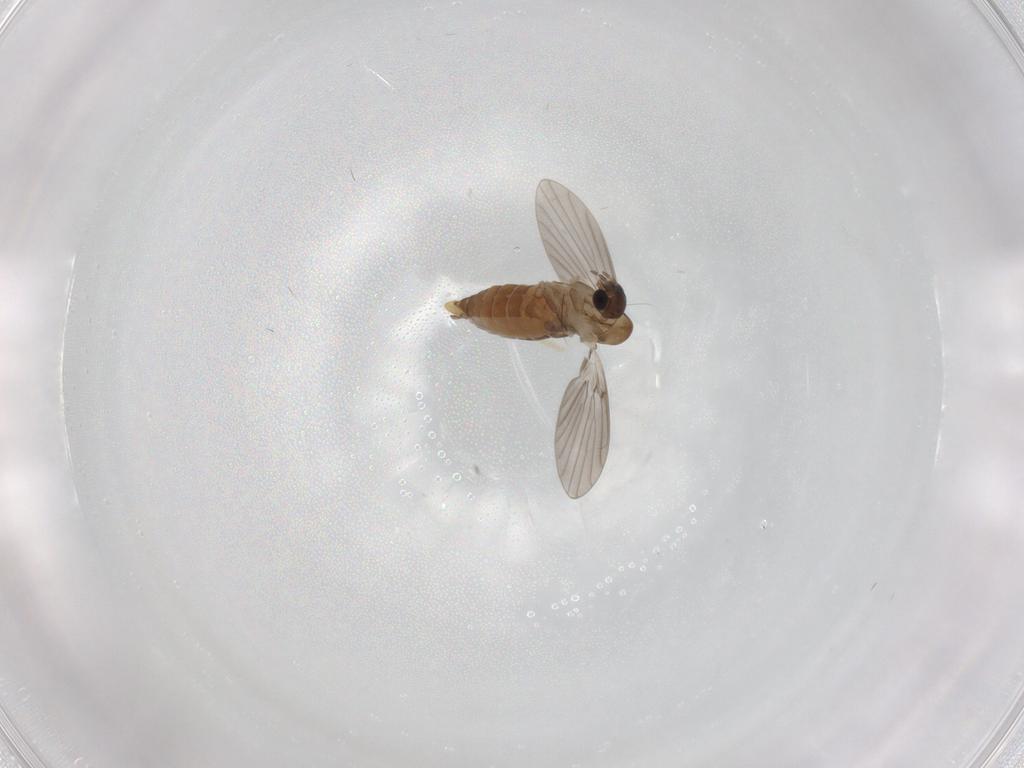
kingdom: Animalia
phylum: Arthropoda
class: Insecta
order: Diptera
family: Psychodidae
